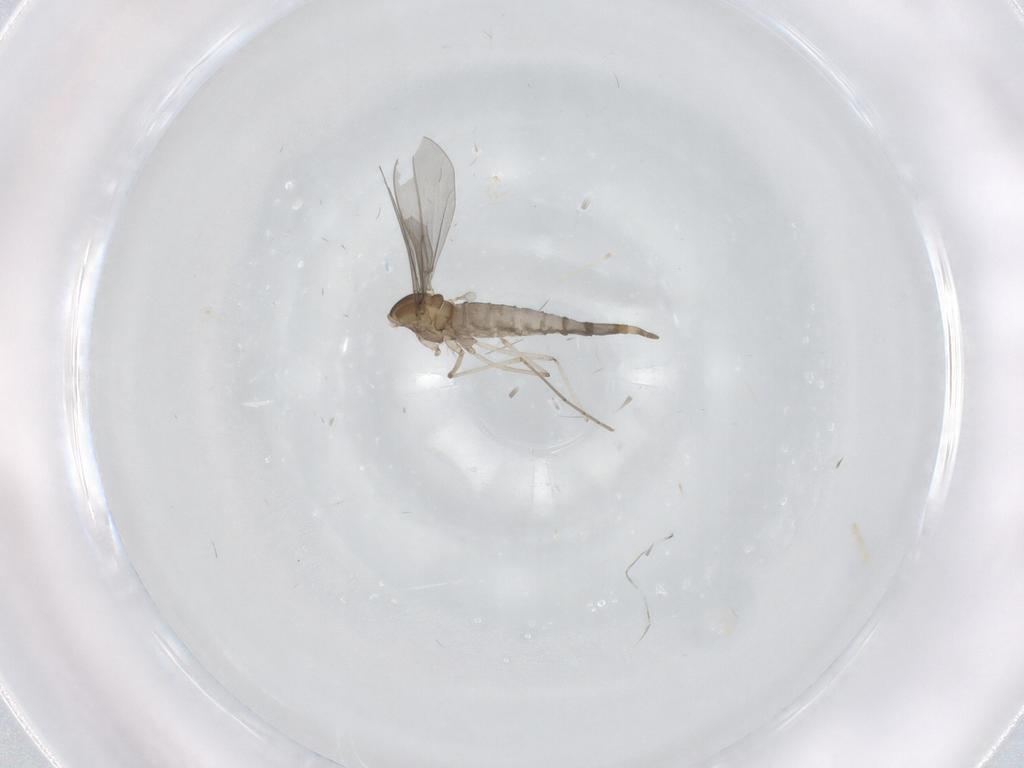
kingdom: Animalia
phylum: Arthropoda
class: Insecta
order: Diptera
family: Cecidomyiidae
